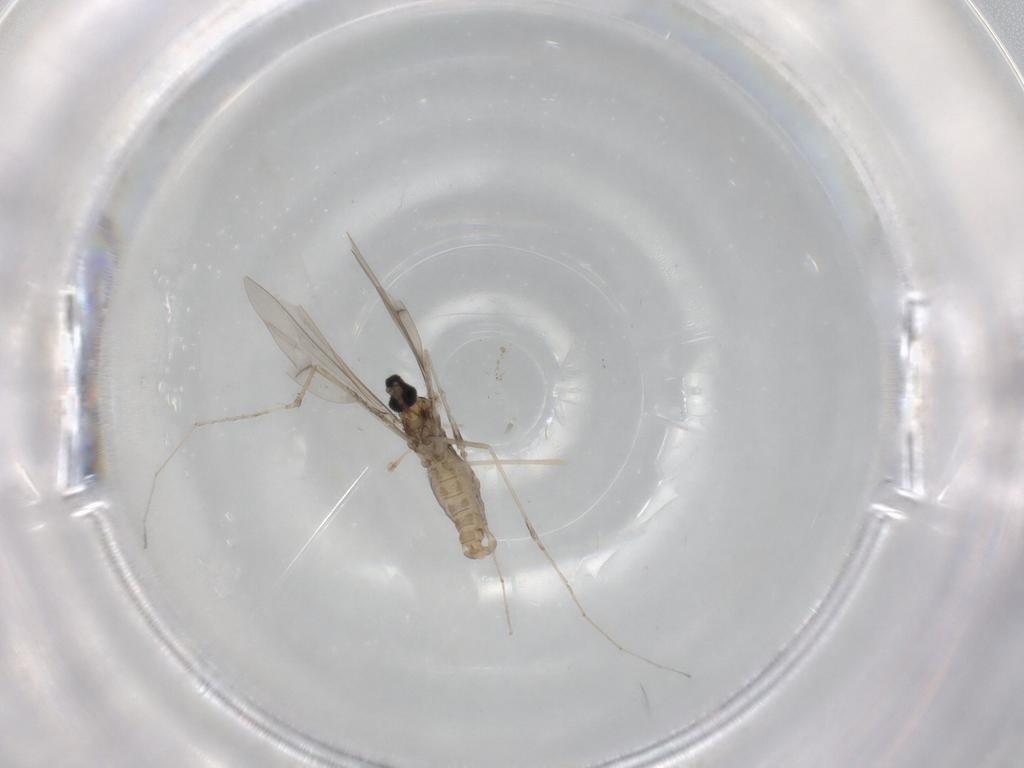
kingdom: Animalia
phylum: Arthropoda
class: Insecta
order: Diptera
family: Cecidomyiidae
